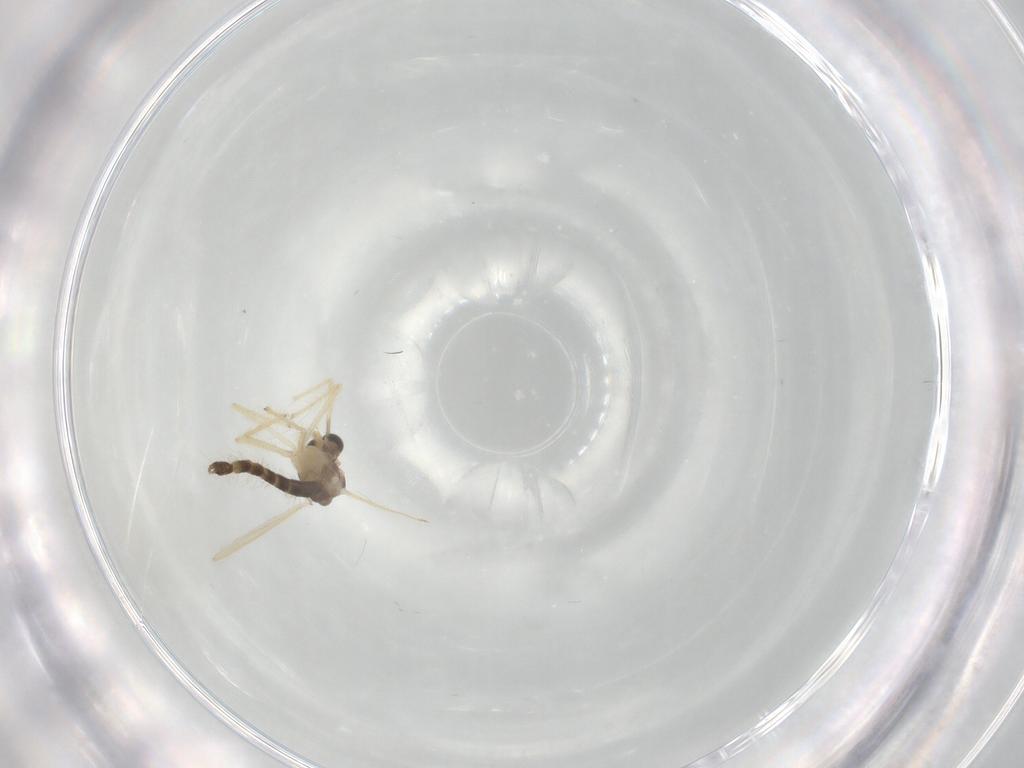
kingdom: Animalia
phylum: Arthropoda
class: Insecta
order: Diptera
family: Chironomidae
